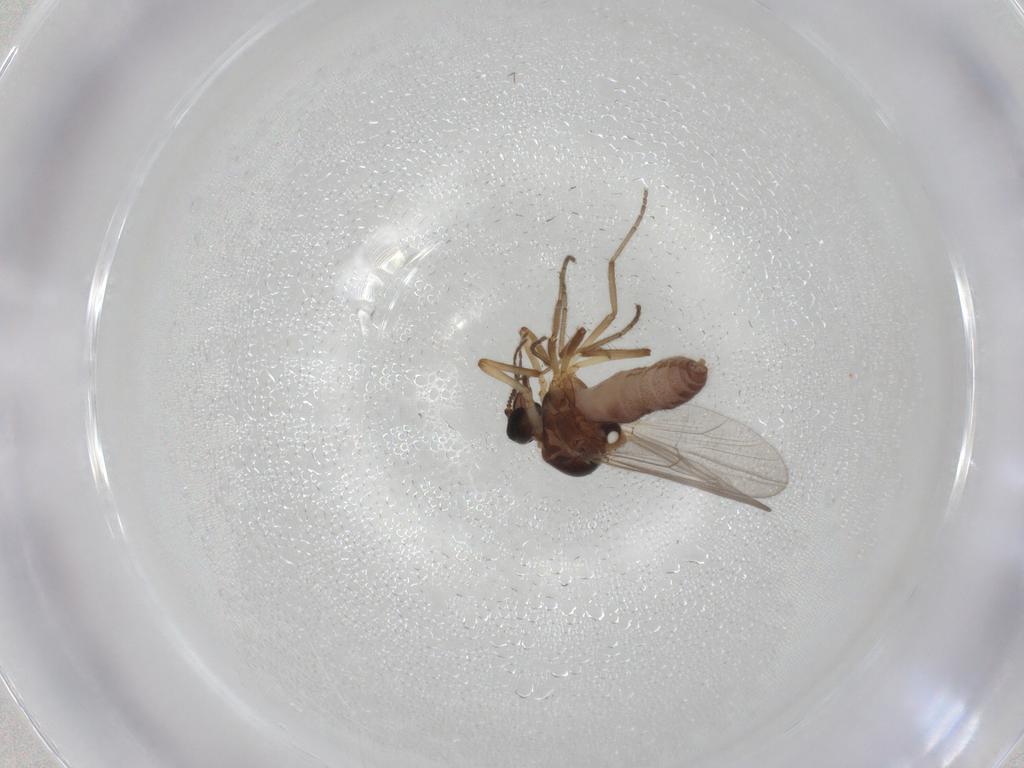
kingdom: Animalia
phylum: Arthropoda
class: Insecta
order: Diptera
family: Ceratopogonidae
